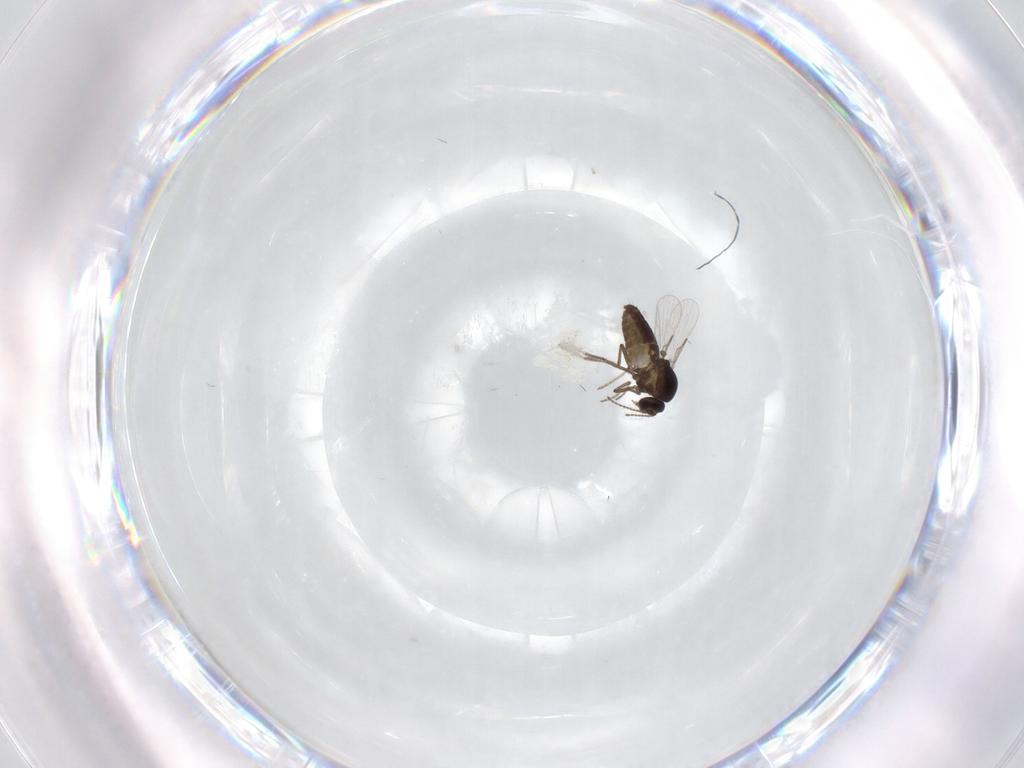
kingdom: Animalia
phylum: Arthropoda
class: Insecta
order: Diptera
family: Ceratopogonidae
